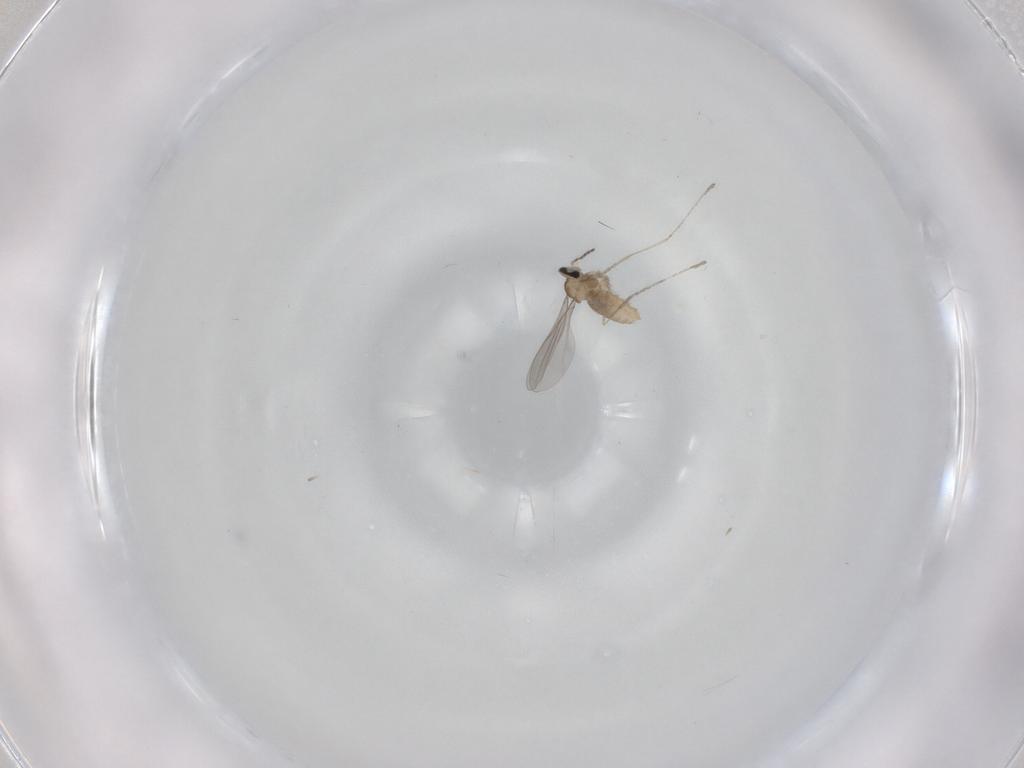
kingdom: Animalia
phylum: Arthropoda
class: Insecta
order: Diptera
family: Cecidomyiidae
